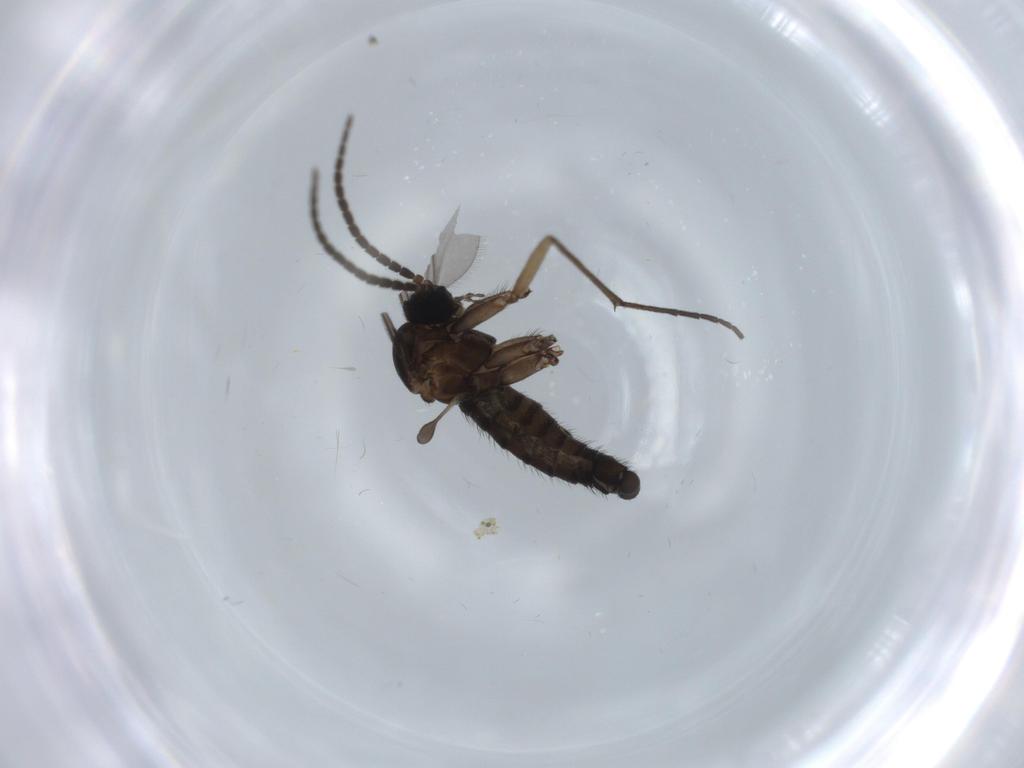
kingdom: Animalia
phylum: Arthropoda
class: Insecta
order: Diptera
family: Sciaridae
